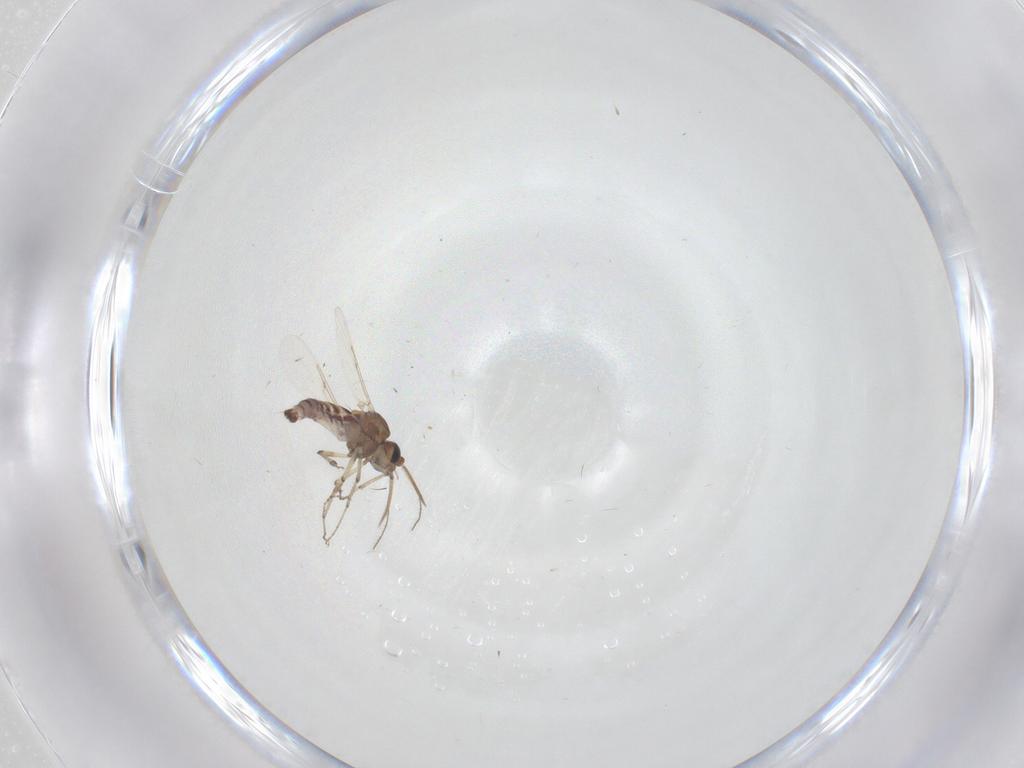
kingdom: Animalia
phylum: Arthropoda
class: Insecta
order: Diptera
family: Ceratopogonidae
